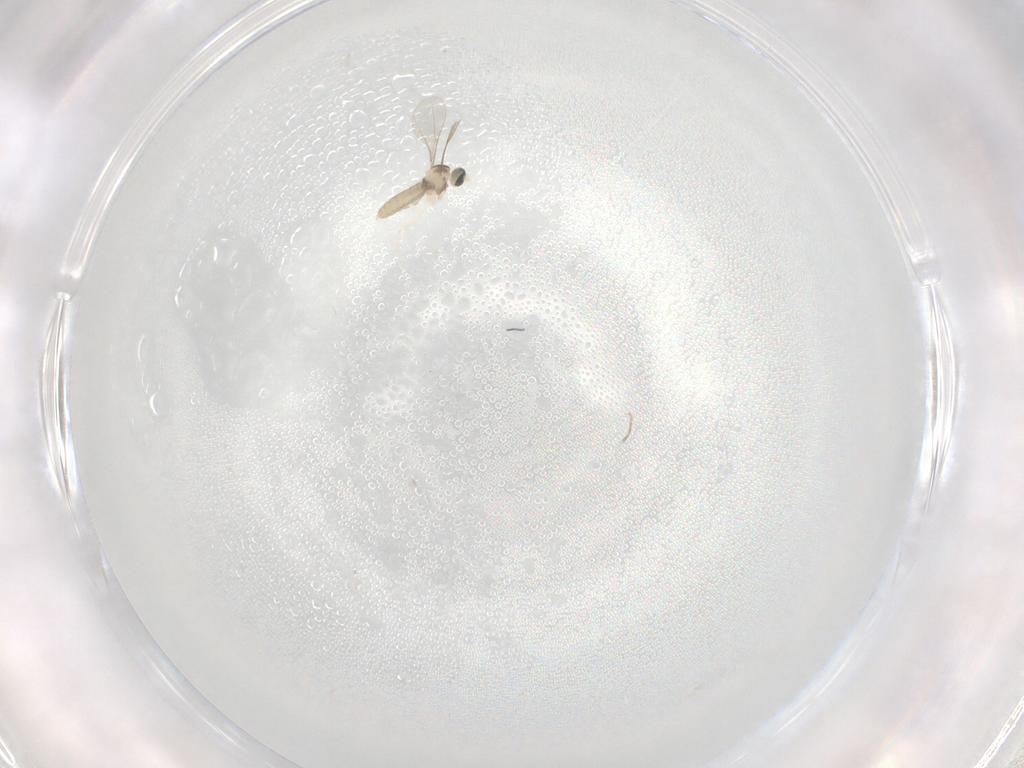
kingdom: Animalia
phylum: Arthropoda
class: Insecta
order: Diptera
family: Phoridae
